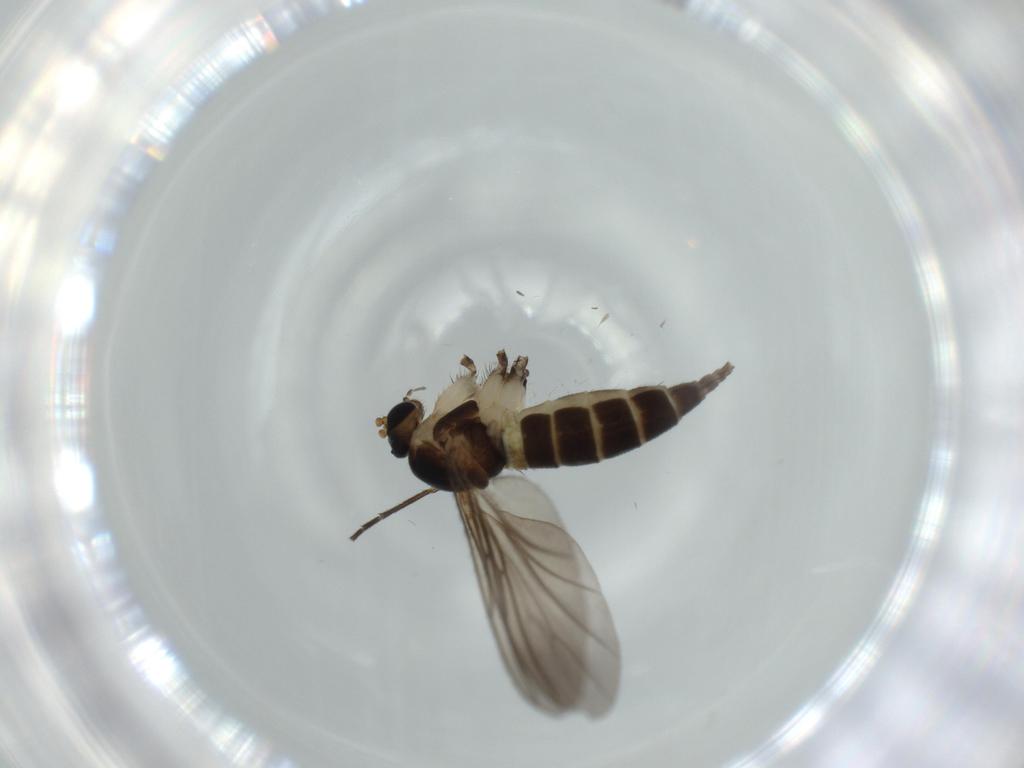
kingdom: Animalia
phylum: Arthropoda
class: Insecta
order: Diptera
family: Sciaridae
